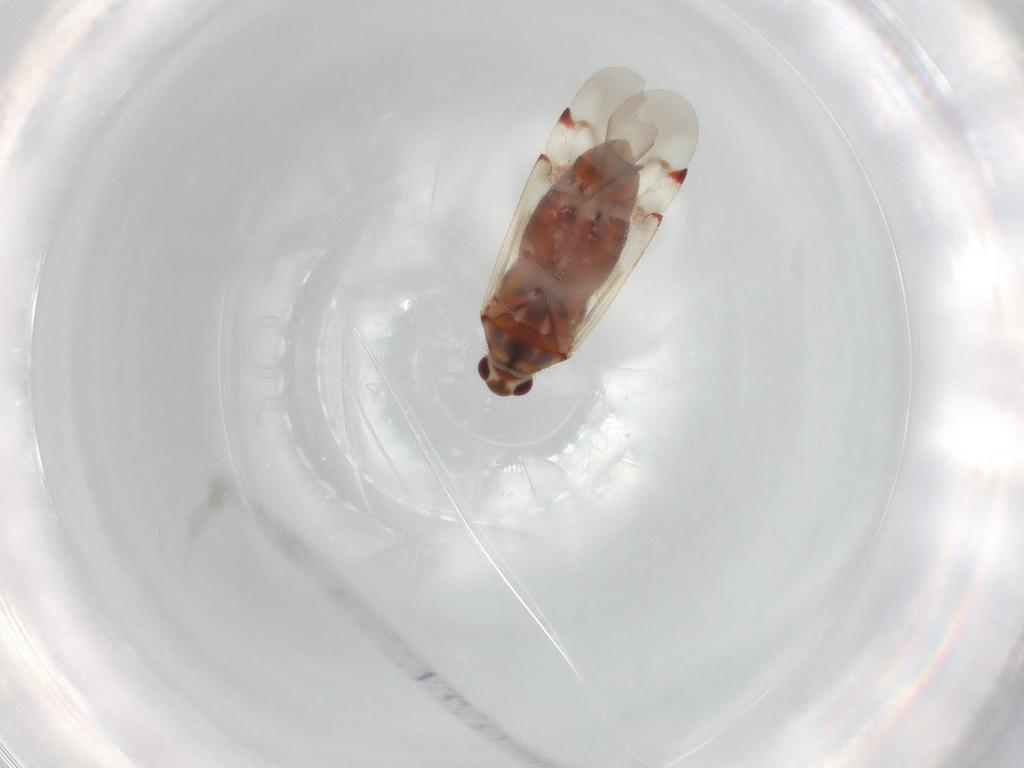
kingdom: Animalia
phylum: Arthropoda
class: Insecta
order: Hemiptera
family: Miridae
